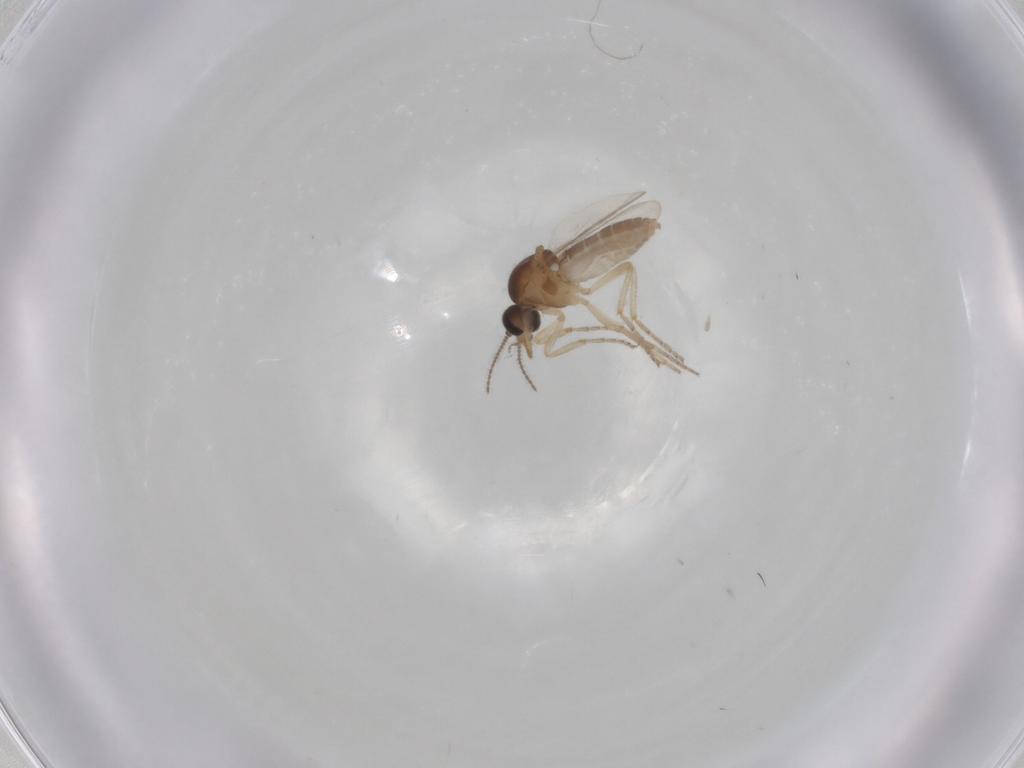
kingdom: Animalia
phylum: Arthropoda
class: Insecta
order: Diptera
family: Ceratopogonidae
